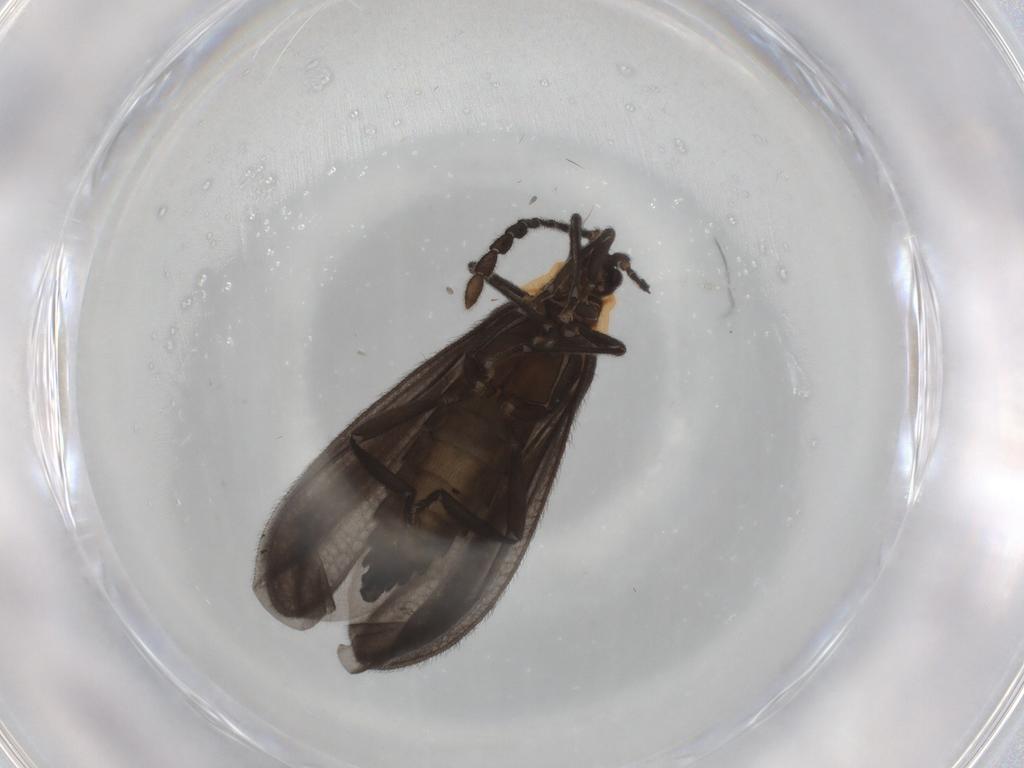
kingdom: Animalia
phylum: Arthropoda
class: Insecta
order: Coleoptera
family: Lycidae
